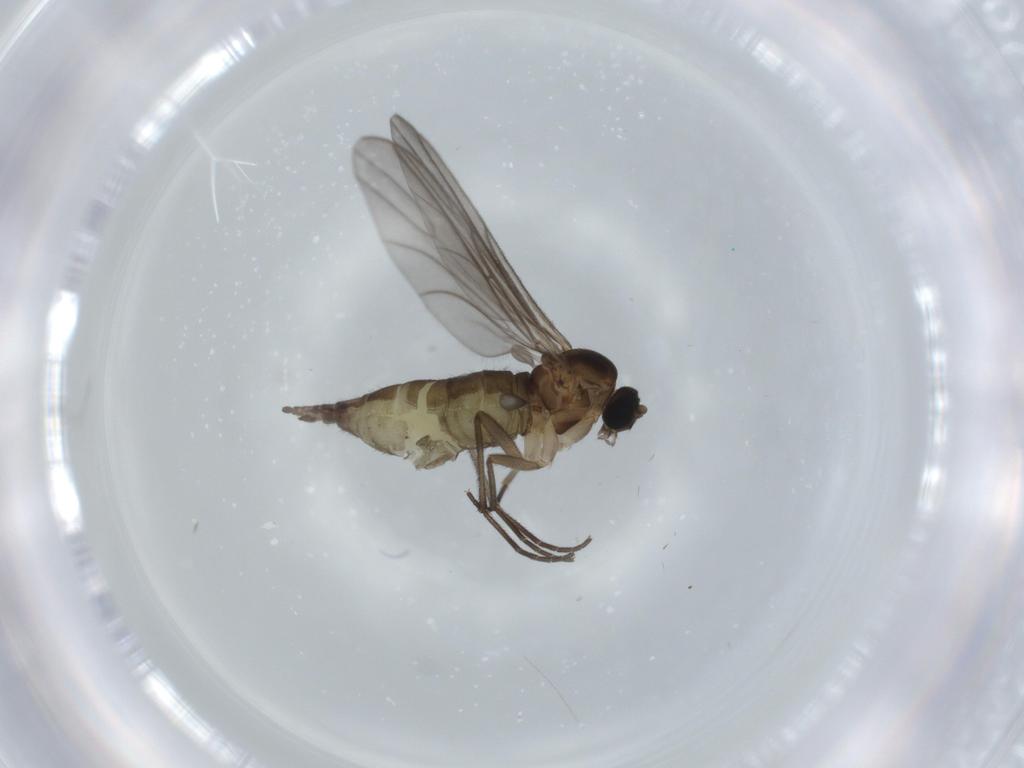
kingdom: Animalia
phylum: Arthropoda
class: Insecta
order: Diptera
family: Sciaridae
